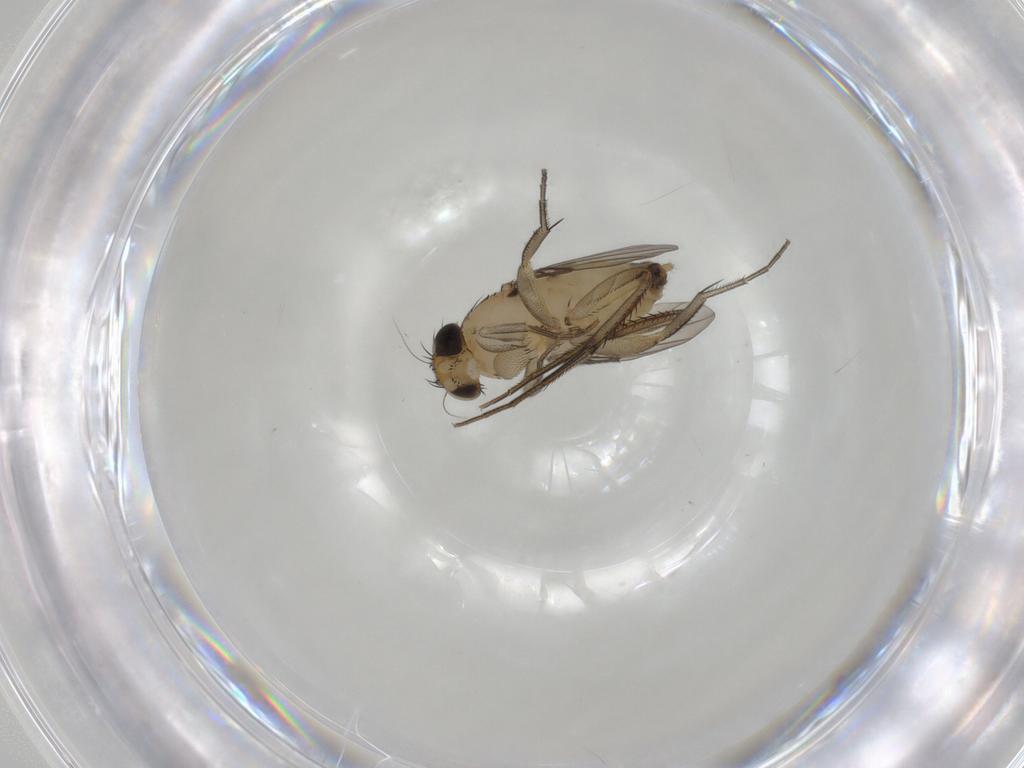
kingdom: Animalia
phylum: Arthropoda
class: Insecta
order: Diptera
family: Phoridae
